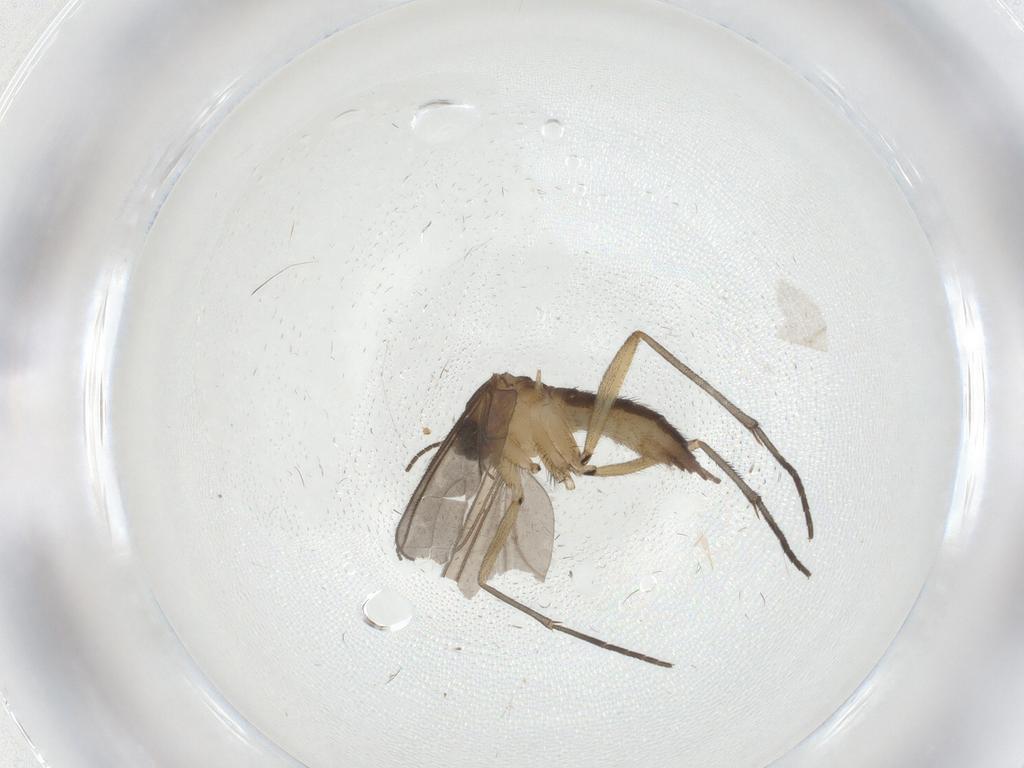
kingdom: Animalia
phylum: Arthropoda
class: Insecta
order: Diptera
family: Sciaridae
